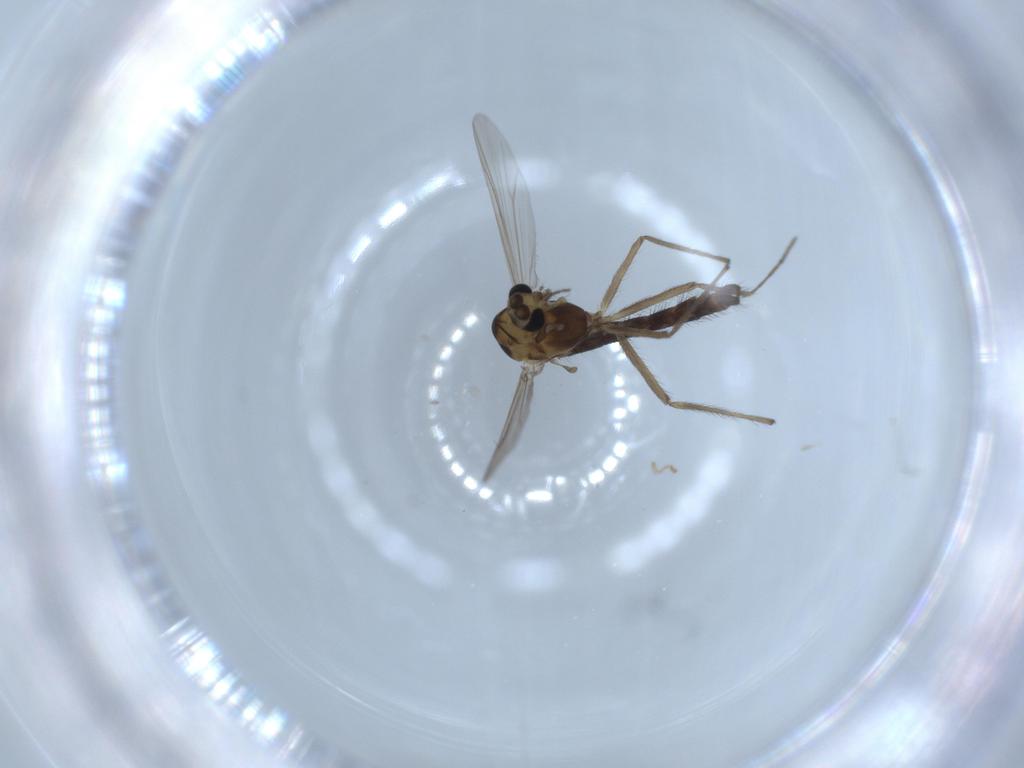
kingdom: Animalia
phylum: Arthropoda
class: Insecta
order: Diptera
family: Chironomidae
